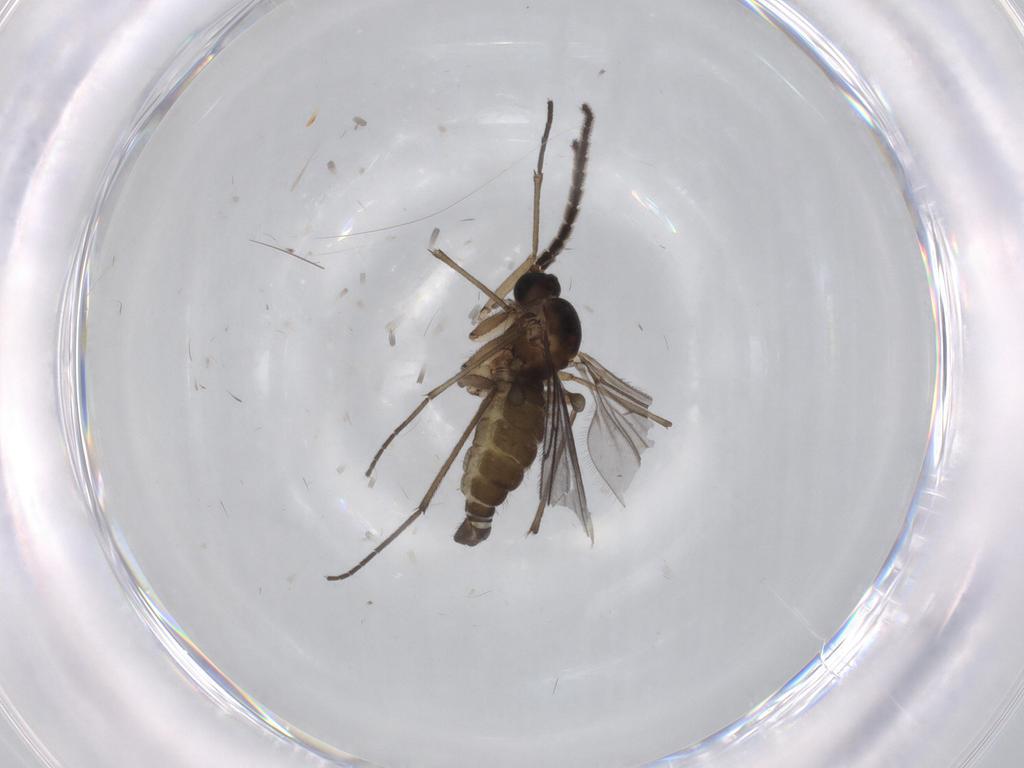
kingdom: Animalia
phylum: Arthropoda
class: Insecta
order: Diptera
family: Sciaridae
